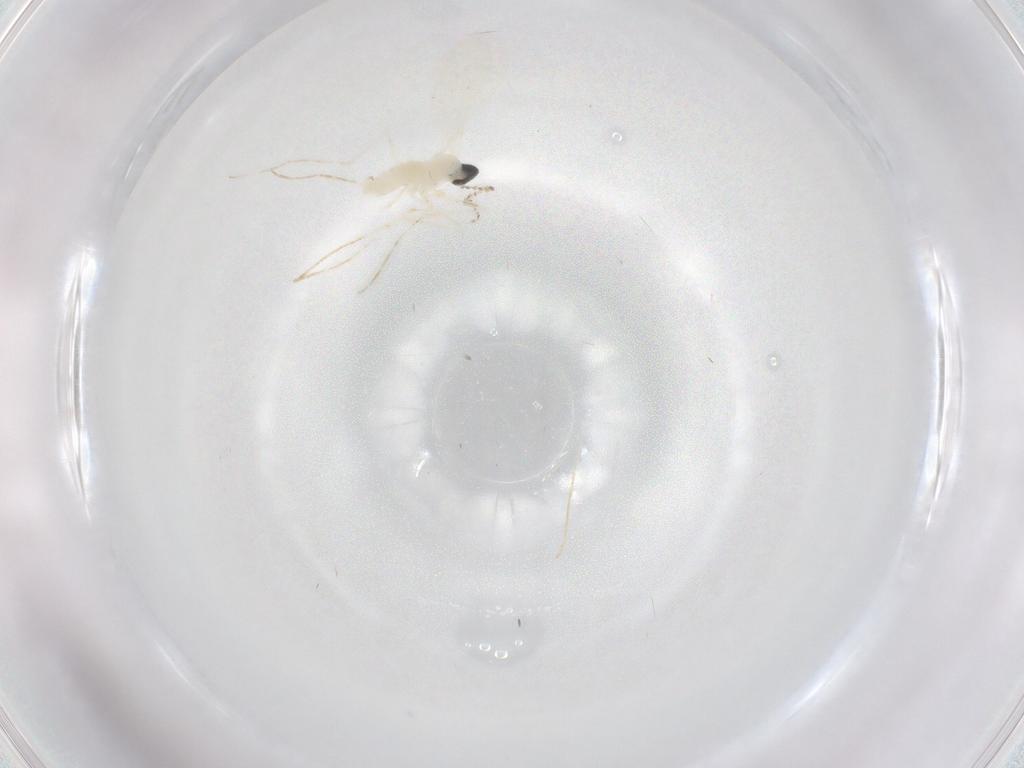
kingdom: Animalia
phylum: Arthropoda
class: Insecta
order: Diptera
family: Cecidomyiidae
